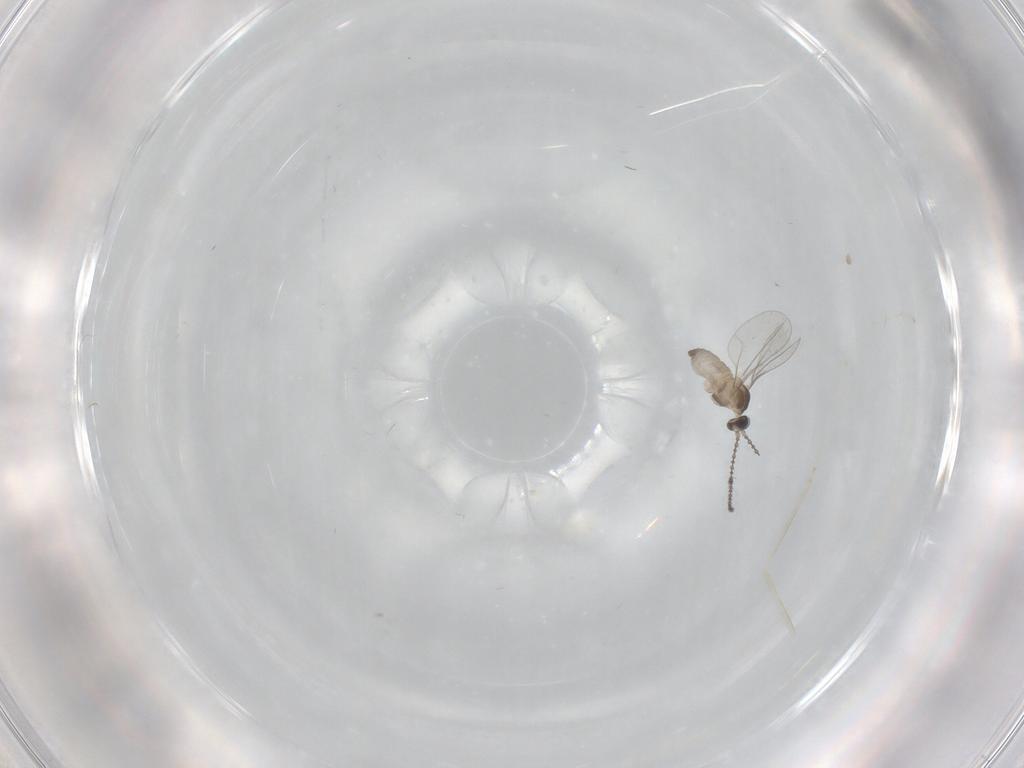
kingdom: Animalia
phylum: Arthropoda
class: Insecta
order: Diptera
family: Cecidomyiidae
